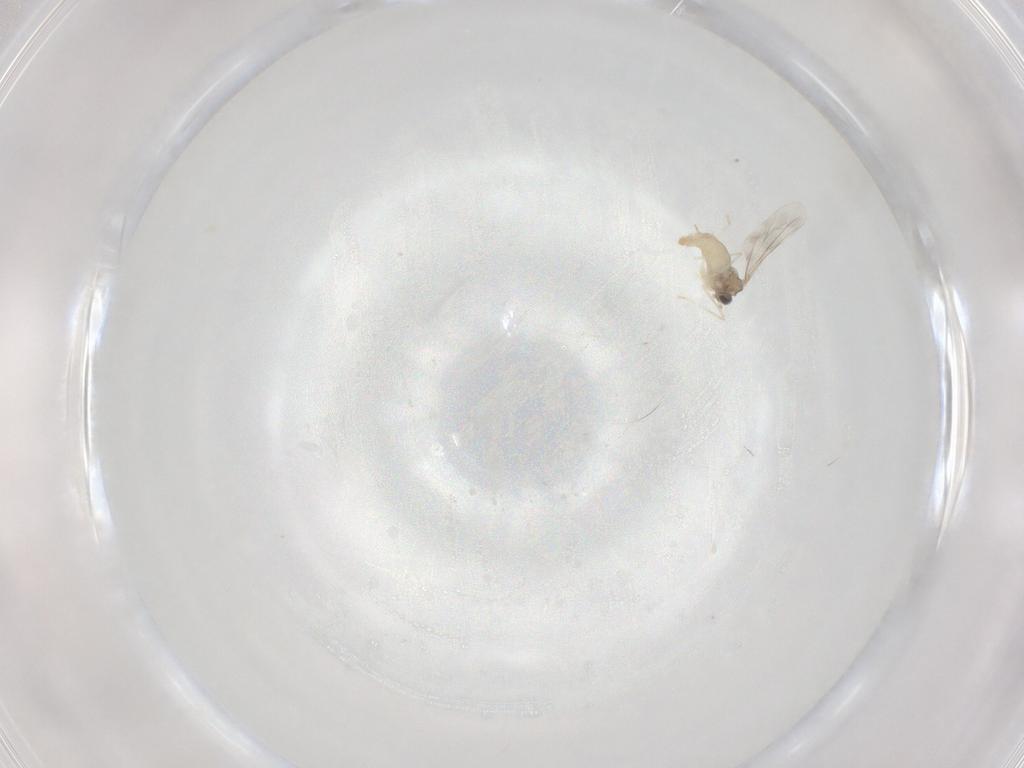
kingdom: Animalia
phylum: Arthropoda
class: Insecta
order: Diptera
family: Cecidomyiidae
